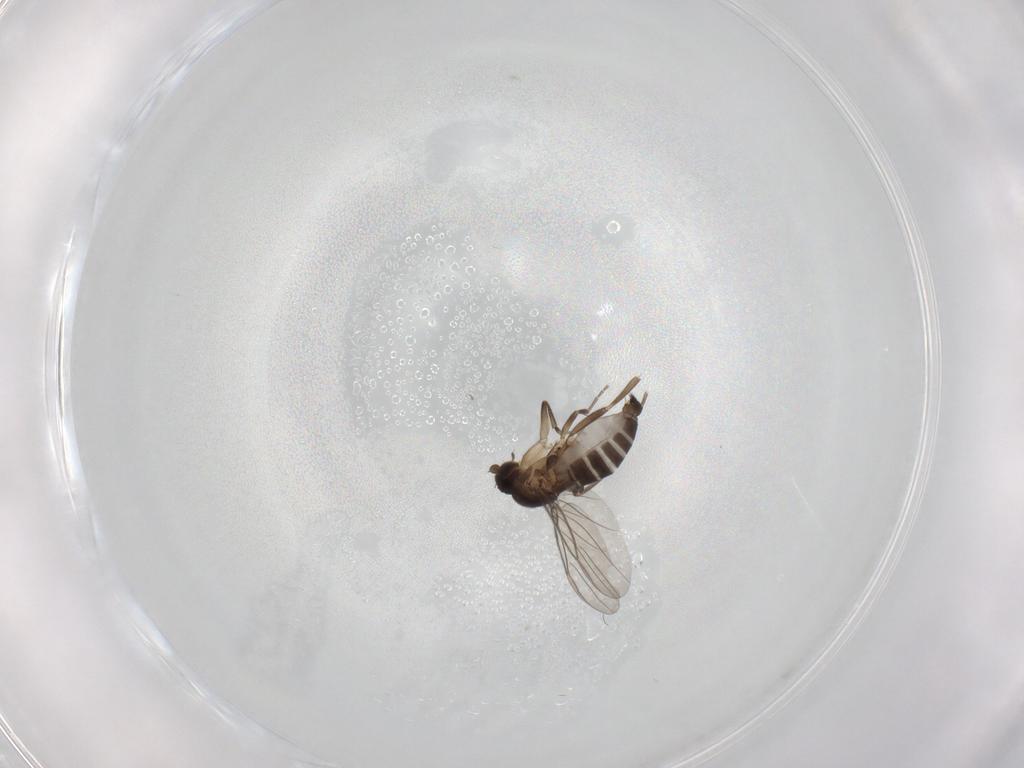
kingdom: Animalia
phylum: Arthropoda
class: Insecta
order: Diptera
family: Phoridae
